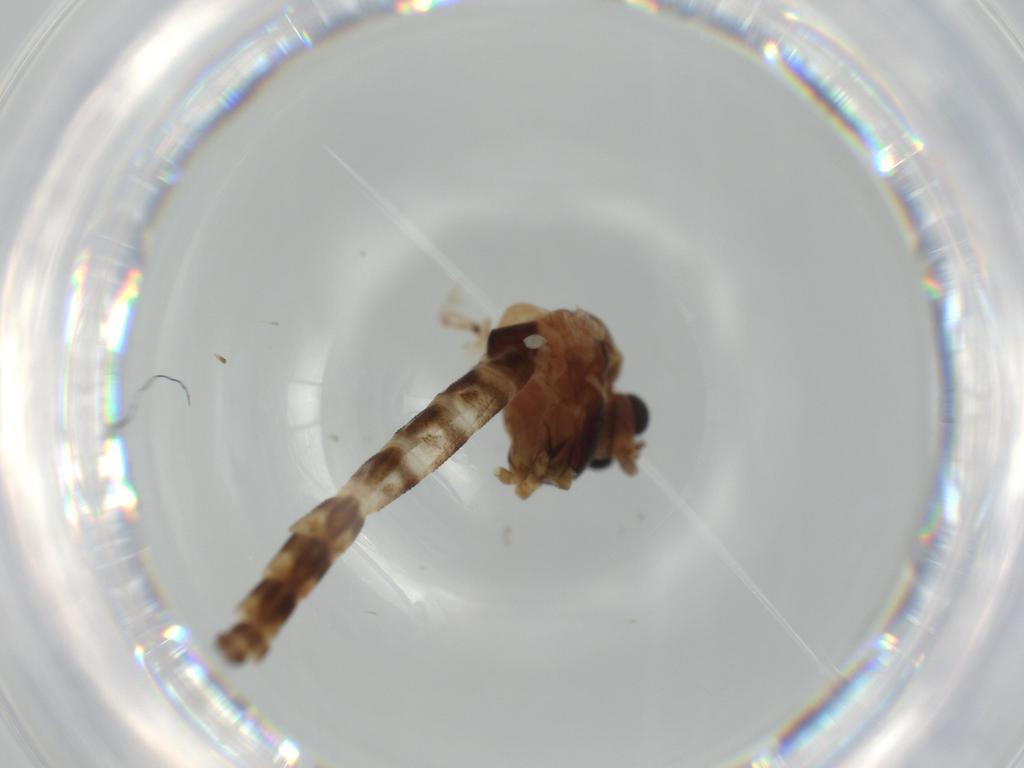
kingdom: Animalia
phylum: Arthropoda
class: Insecta
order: Diptera
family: Chironomidae
